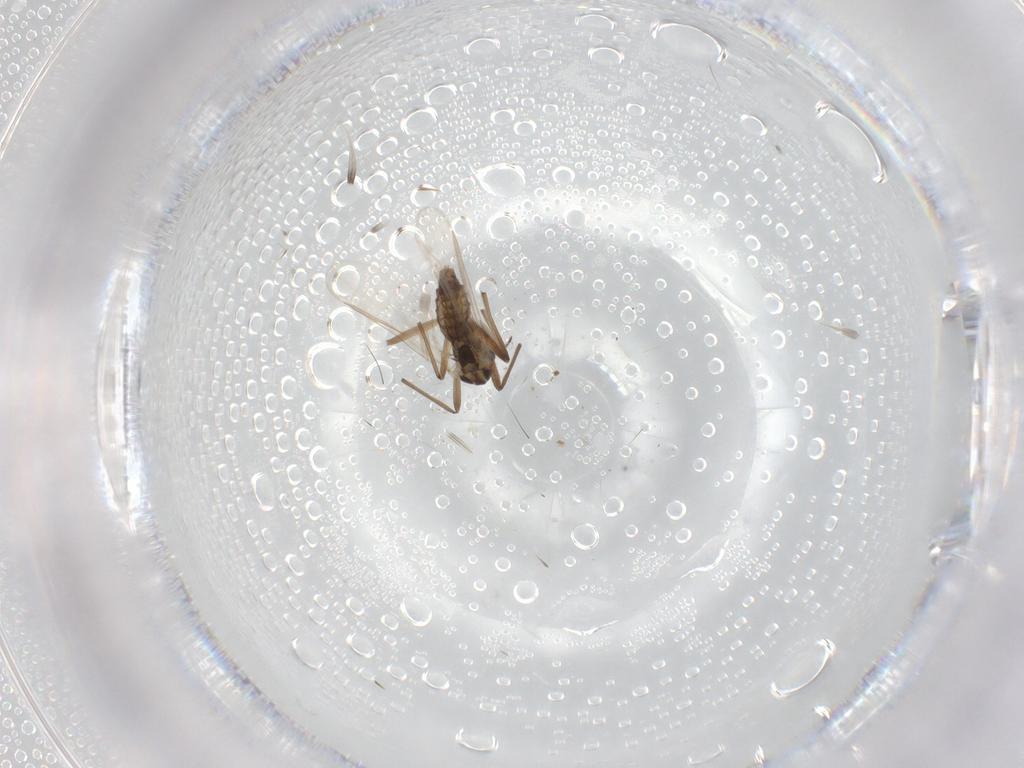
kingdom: Animalia
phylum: Arthropoda
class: Insecta
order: Diptera
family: Chironomidae
